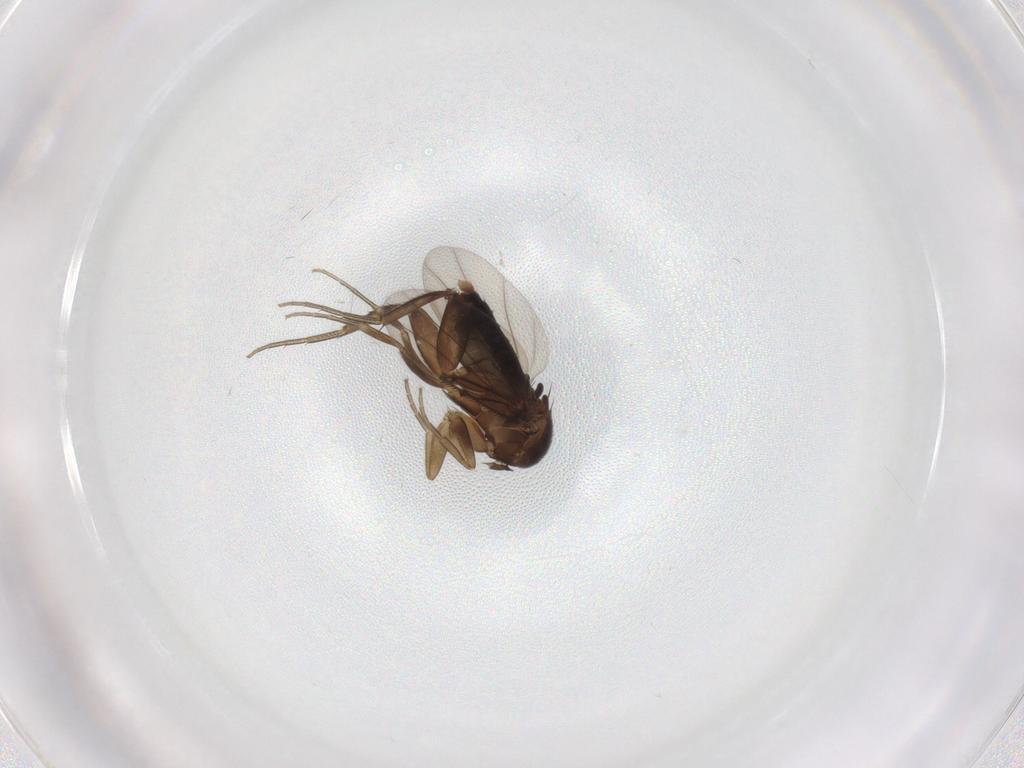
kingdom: Animalia
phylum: Arthropoda
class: Insecta
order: Diptera
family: Phoridae
